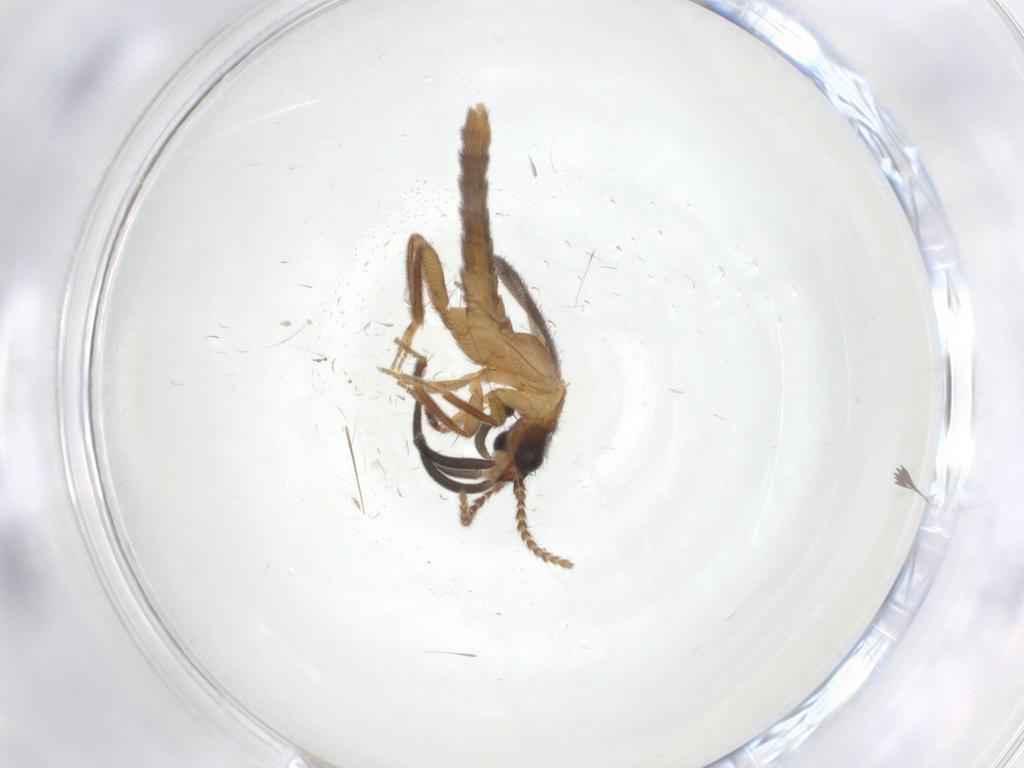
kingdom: Animalia
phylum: Arthropoda
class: Insecta
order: Coleoptera
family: Omethidae
